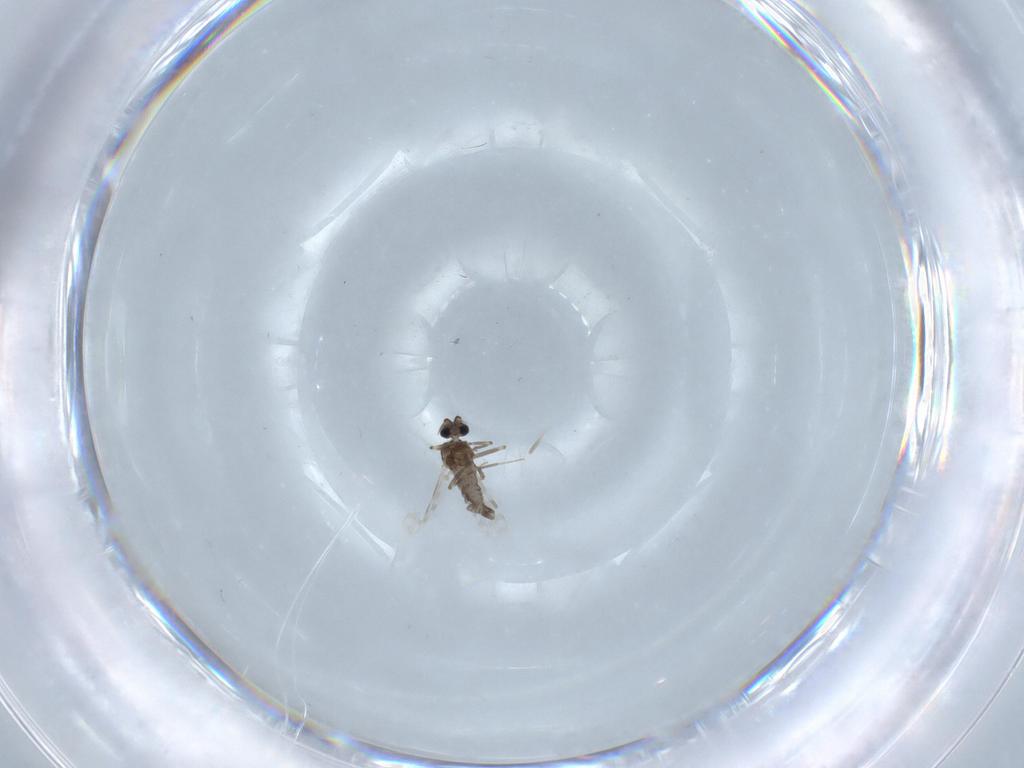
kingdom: Animalia
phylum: Arthropoda
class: Insecta
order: Diptera
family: Ceratopogonidae
